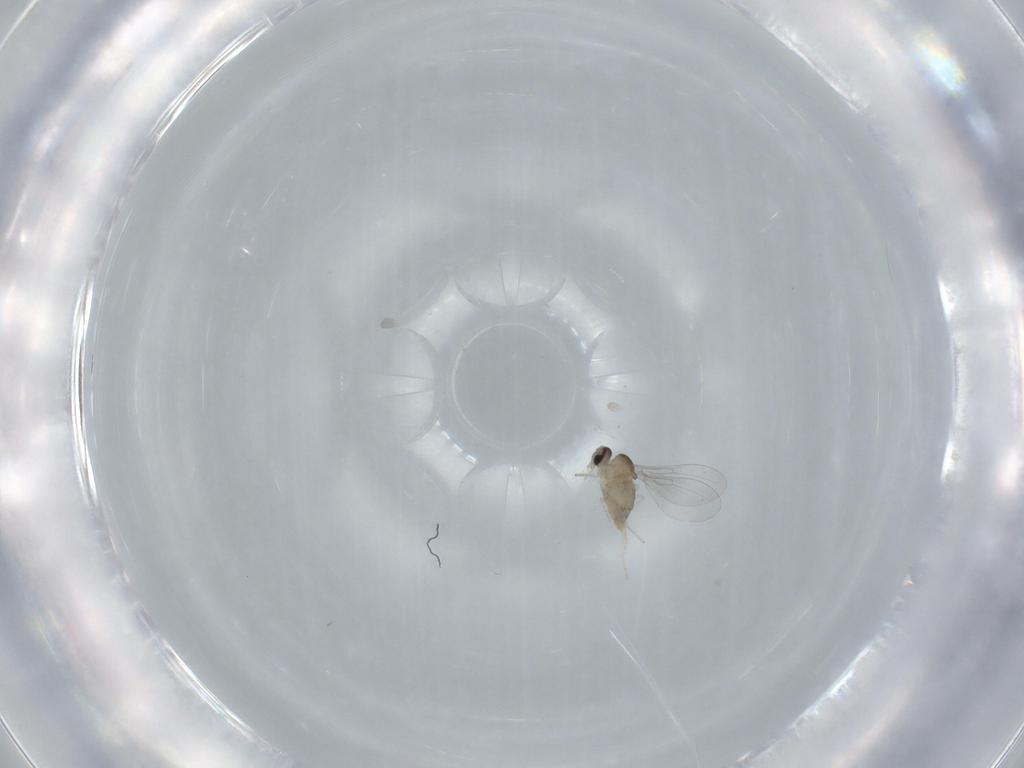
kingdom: Animalia
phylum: Arthropoda
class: Insecta
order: Diptera
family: Cecidomyiidae
